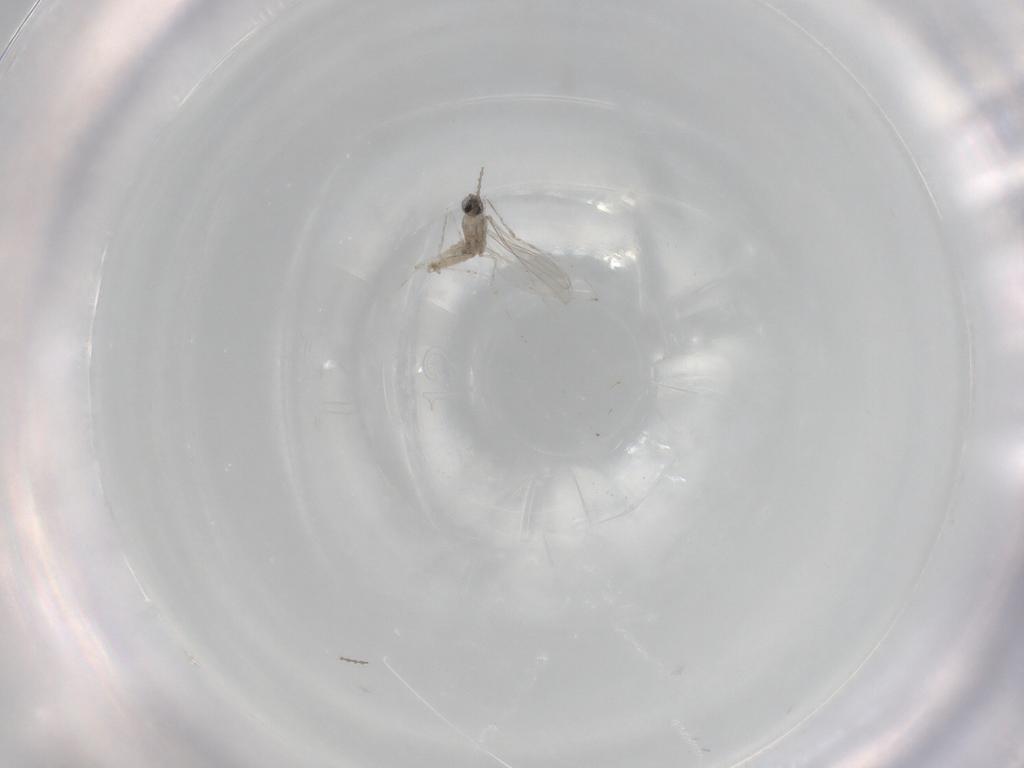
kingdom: Animalia
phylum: Arthropoda
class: Insecta
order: Diptera
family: Cecidomyiidae
